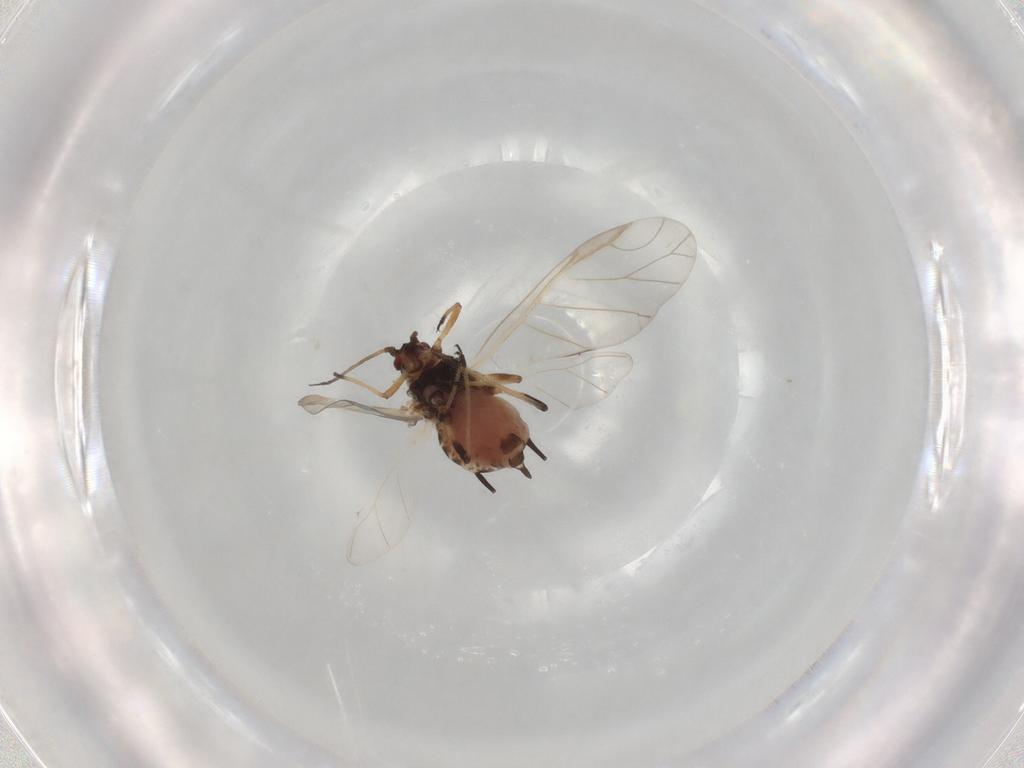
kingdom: Animalia
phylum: Arthropoda
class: Insecta
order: Hemiptera
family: Aphididae
